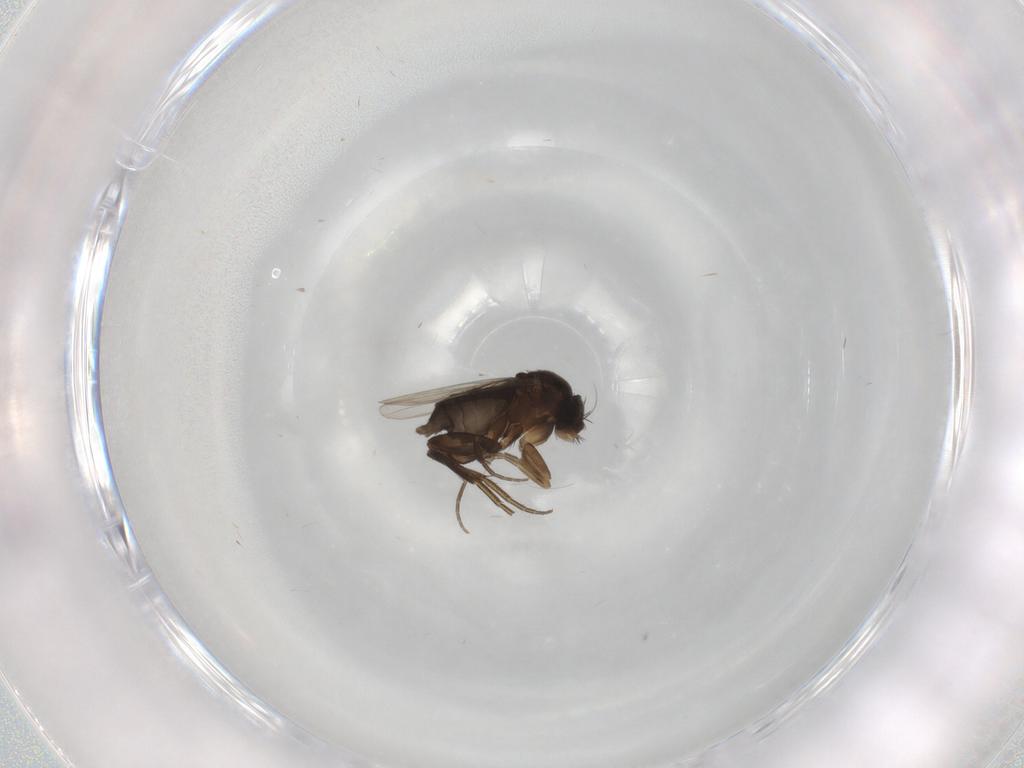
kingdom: Animalia
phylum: Arthropoda
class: Insecta
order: Diptera
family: Phoridae
